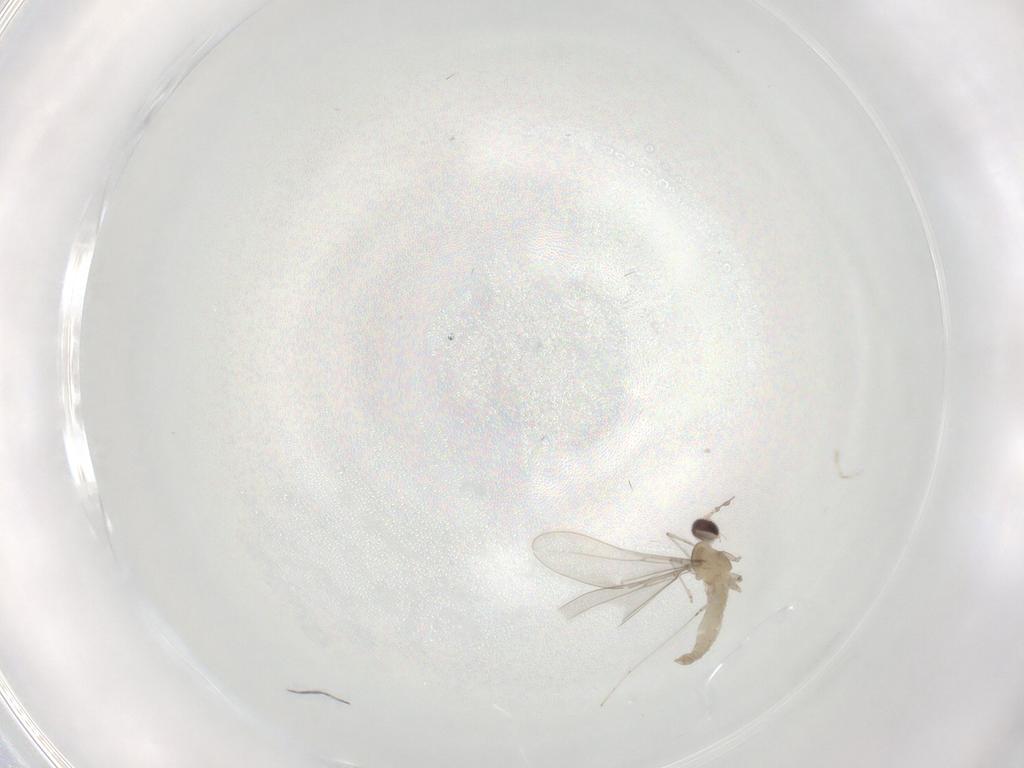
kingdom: Animalia
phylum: Arthropoda
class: Insecta
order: Diptera
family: Cecidomyiidae
